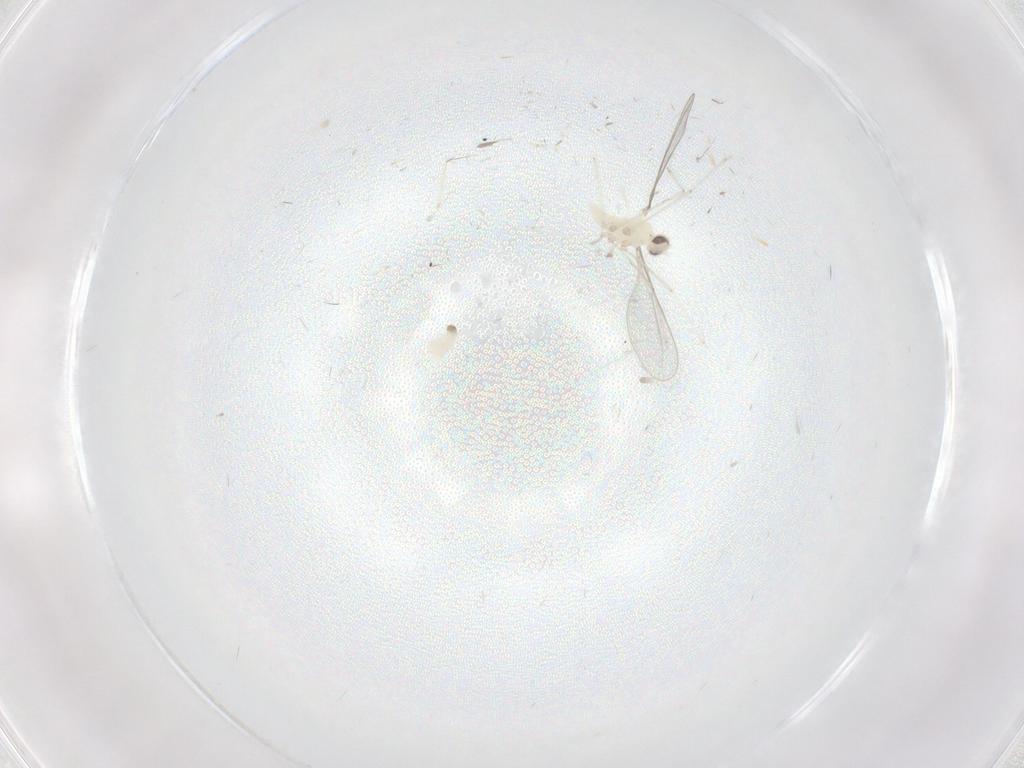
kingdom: Animalia
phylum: Arthropoda
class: Insecta
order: Diptera
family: Cecidomyiidae
